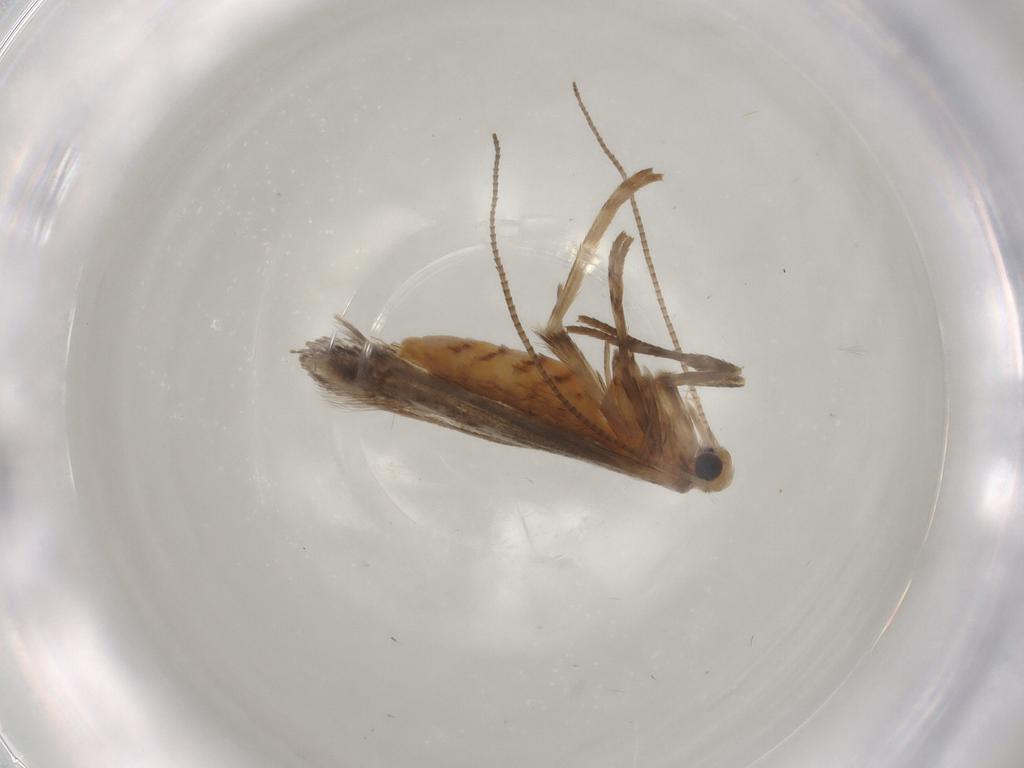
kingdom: Animalia
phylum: Arthropoda
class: Insecta
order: Lepidoptera
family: Gracillariidae
